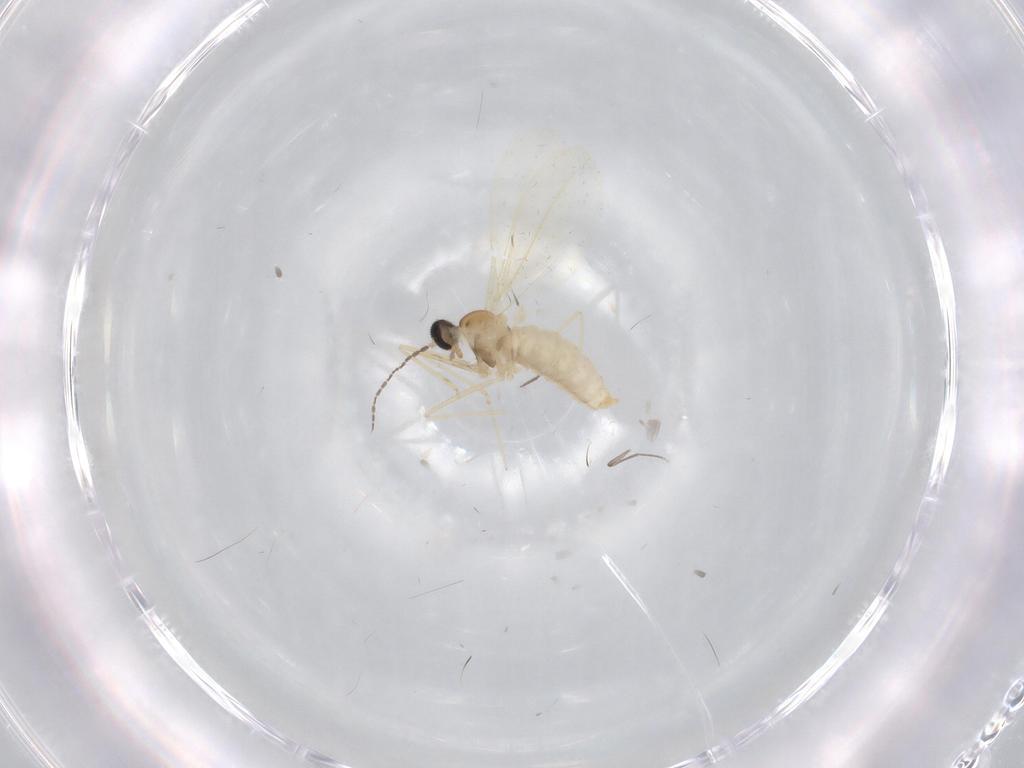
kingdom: Animalia
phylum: Arthropoda
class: Insecta
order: Diptera
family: Cecidomyiidae
